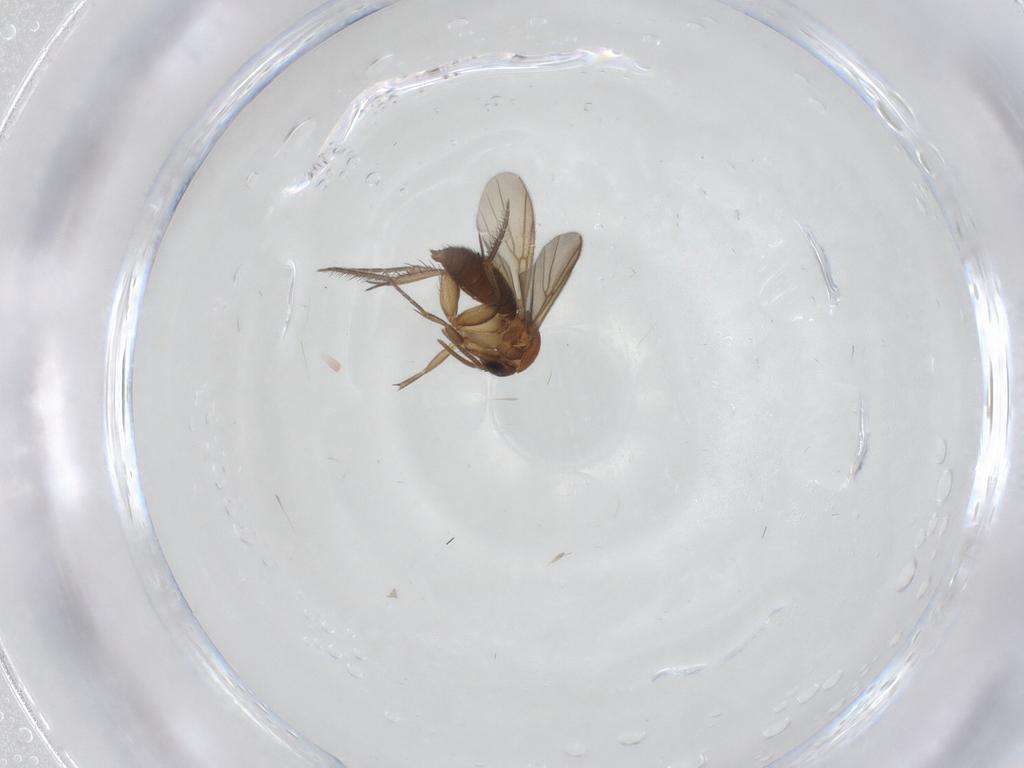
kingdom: Animalia
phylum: Arthropoda
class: Insecta
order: Diptera
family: Mycetophilidae
